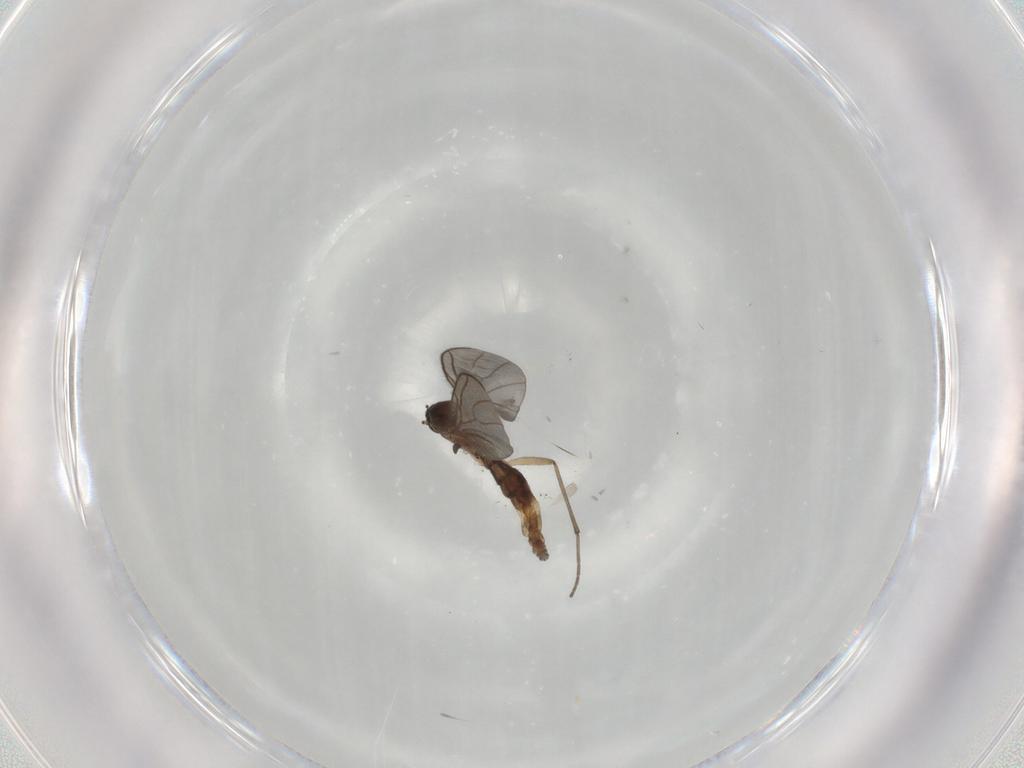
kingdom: Animalia
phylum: Arthropoda
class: Insecta
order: Diptera
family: Sciaridae
